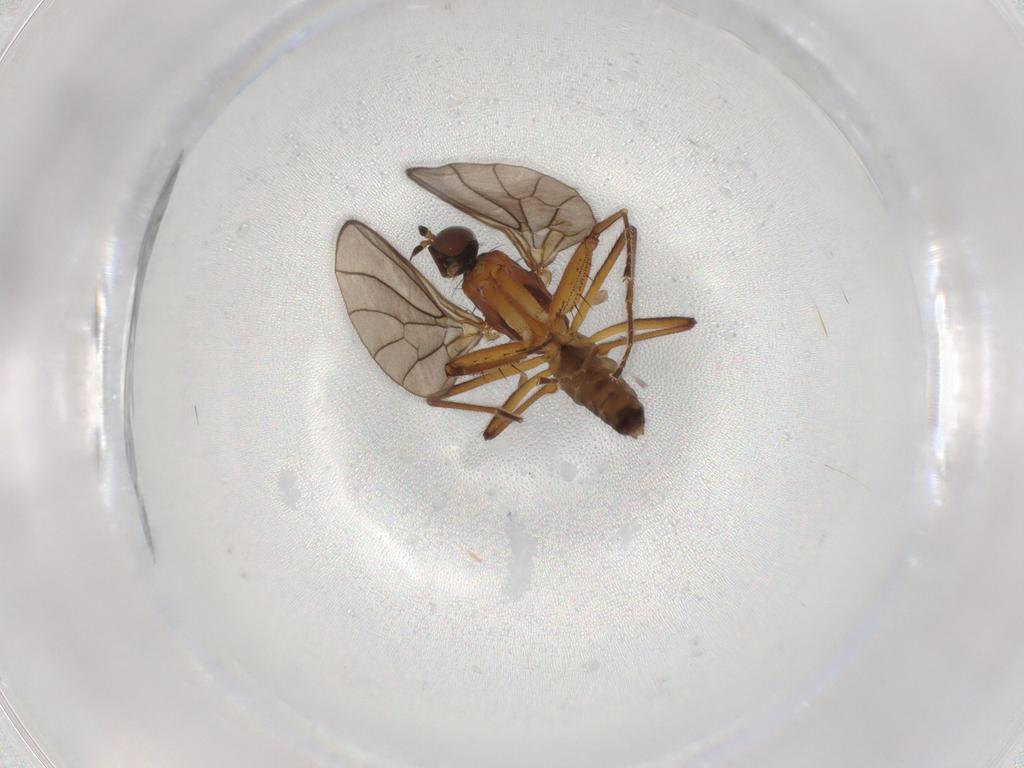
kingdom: Animalia
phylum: Arthropoda
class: Insecta
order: Diptera
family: Empididae
